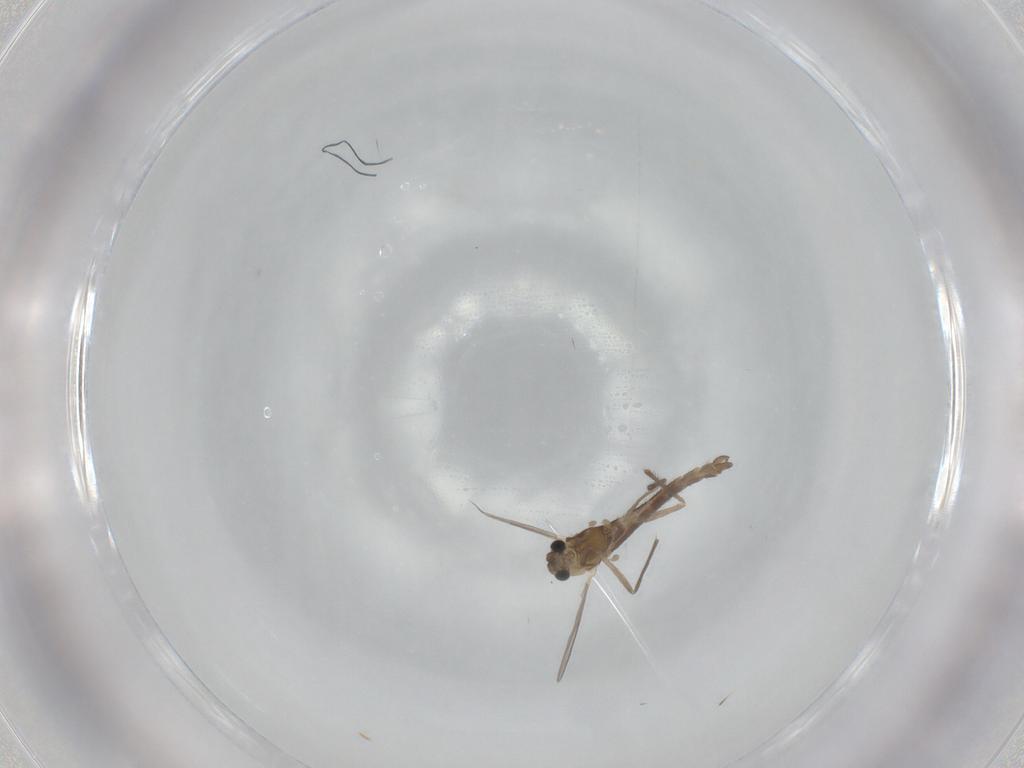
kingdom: Animalia
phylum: Arthropoda
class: Insecta
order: Diptera
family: Chironomidae
